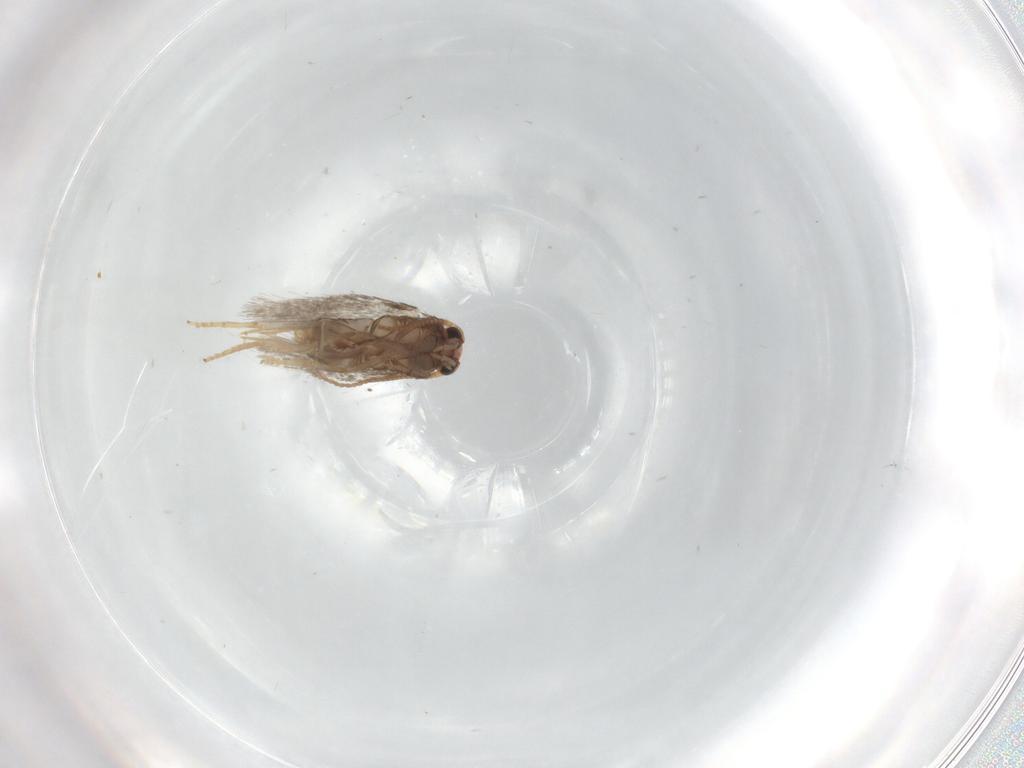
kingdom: Animalia
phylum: Arthropoda
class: Insecta
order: Lepidoptera
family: Nepticulidae
